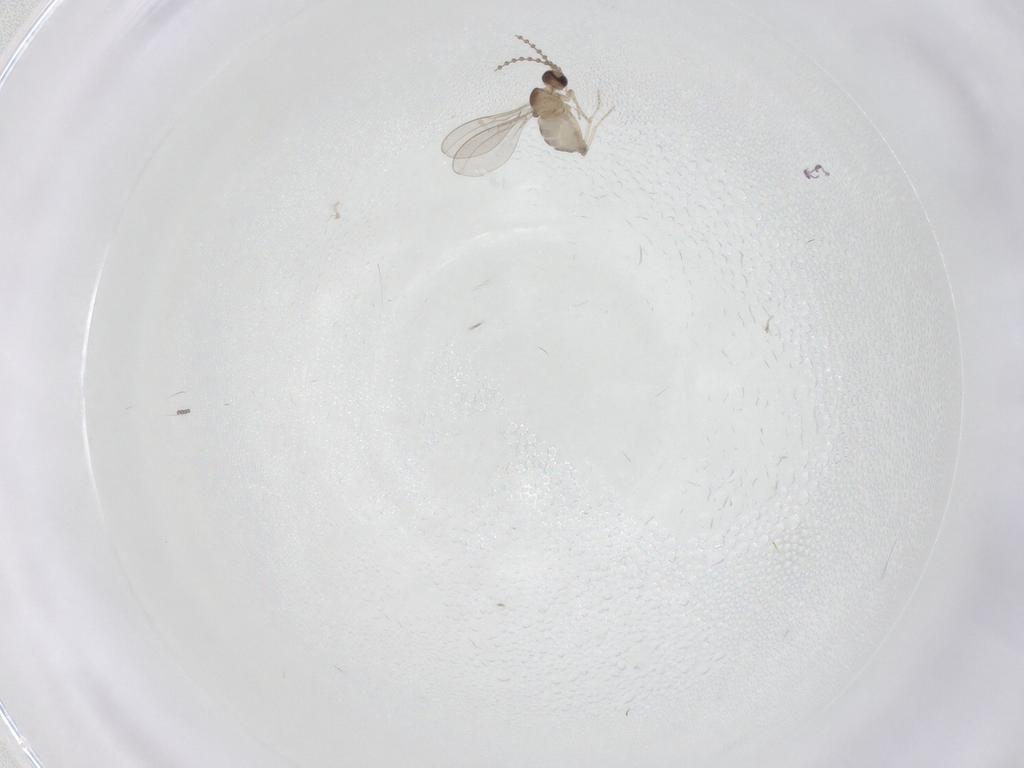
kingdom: Animalia
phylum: Arthropoda
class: Insecta
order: Diptera
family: Cecidomyiidae
